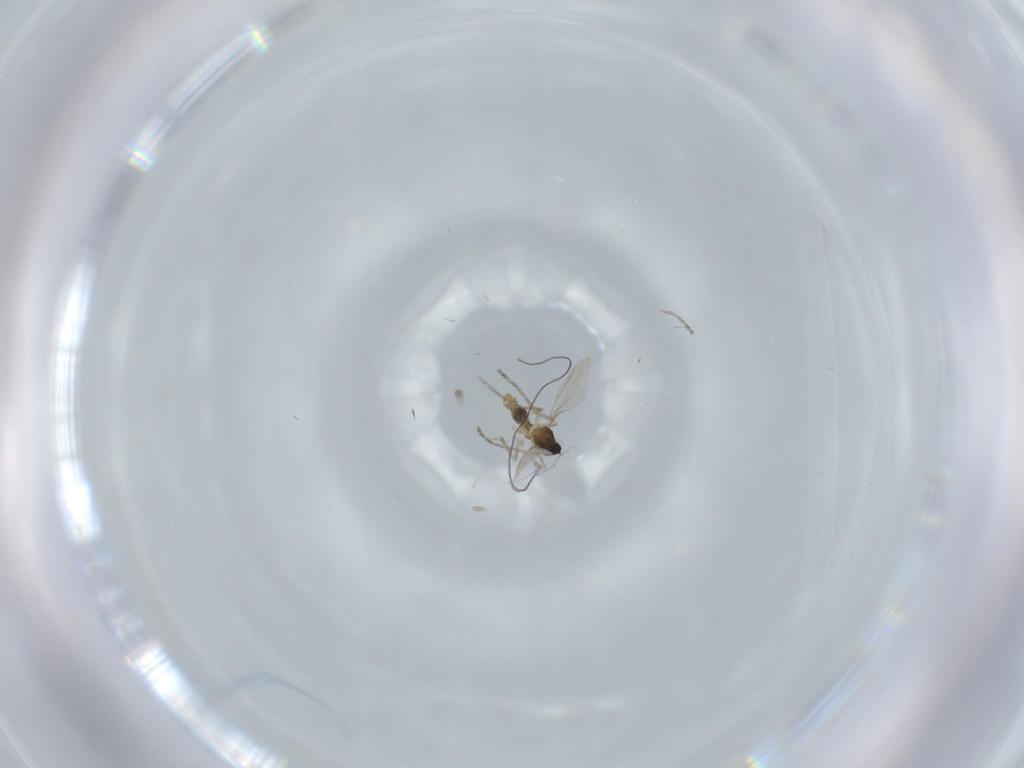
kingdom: Animalia
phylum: Arthropoda
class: Insecta
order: Diptera
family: Cecidomyiidae
